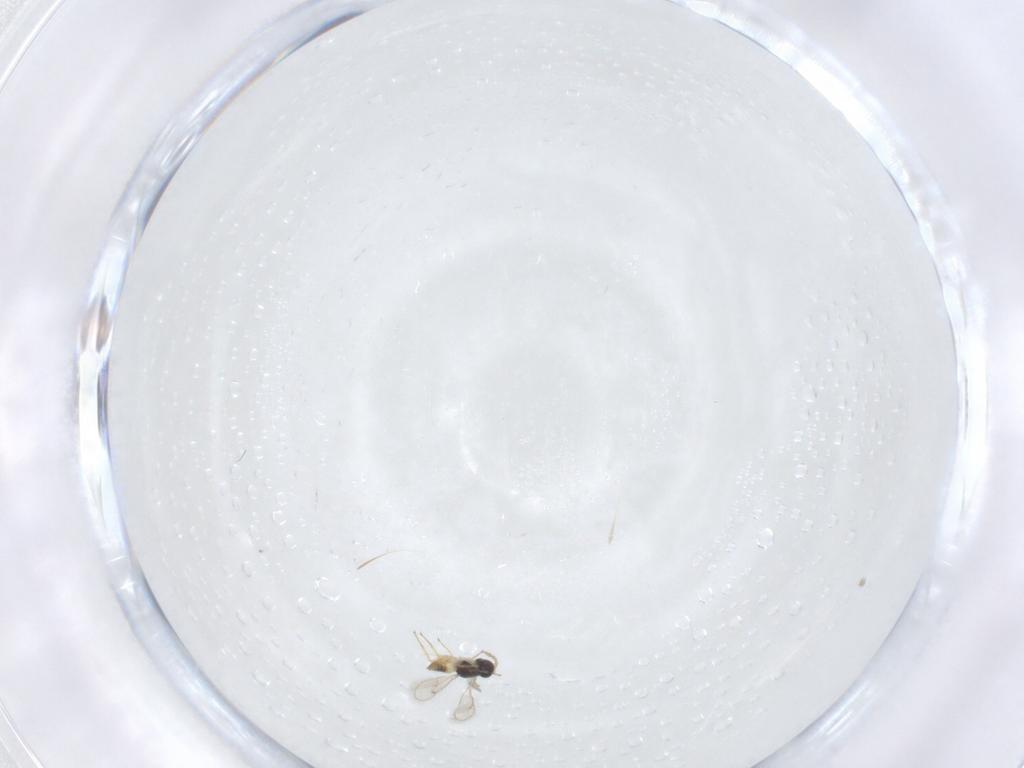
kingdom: Animalia
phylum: Arthropoda
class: Insecta
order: Hymenoptera
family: Eulophidae
